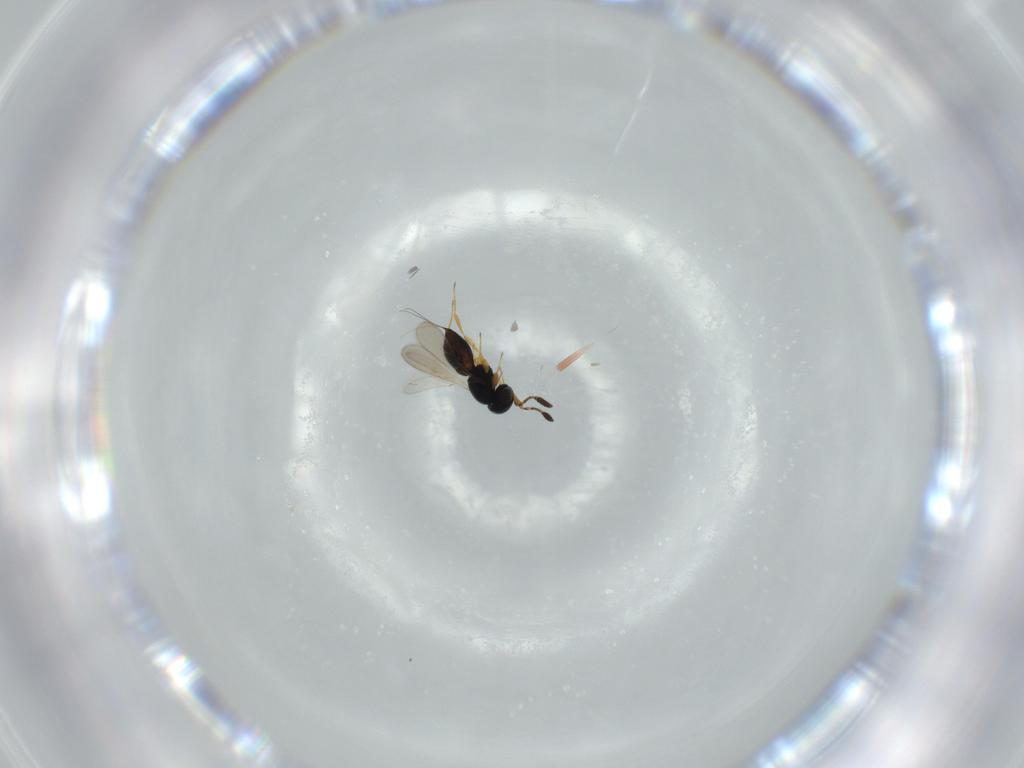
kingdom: Animalia
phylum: Arthropoda
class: Insecta
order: Hymenoptera
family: Scelionidae
